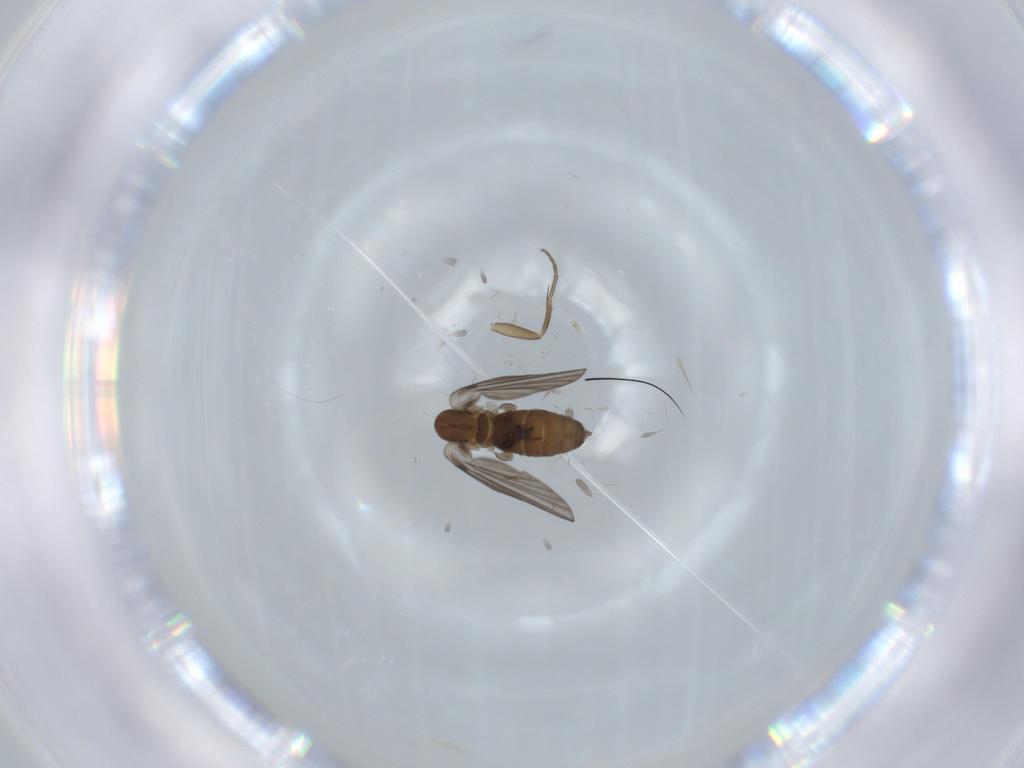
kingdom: Animalia
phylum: Arthropoda
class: Insecta
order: Diptera
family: Psychodidae
